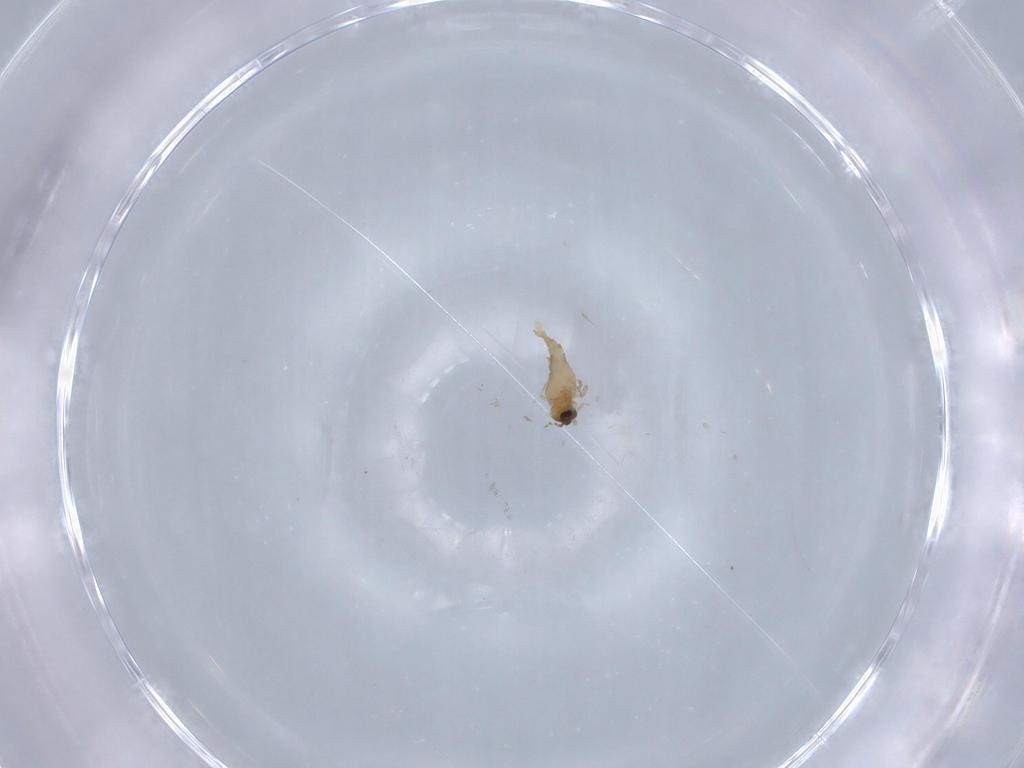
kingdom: Animalia
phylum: Arthropoda
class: Insecta
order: Diptera
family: Cecidomyiidae
